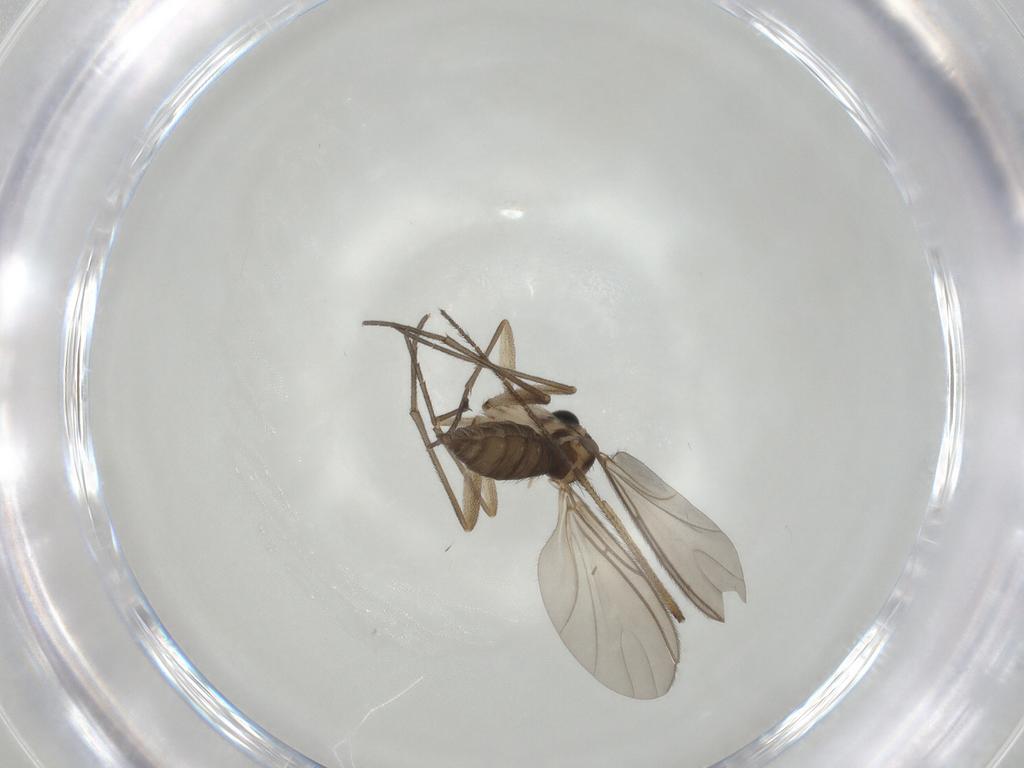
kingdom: Animalia
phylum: Arthropoda
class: Insecta
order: Diptera
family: Sciaridae
